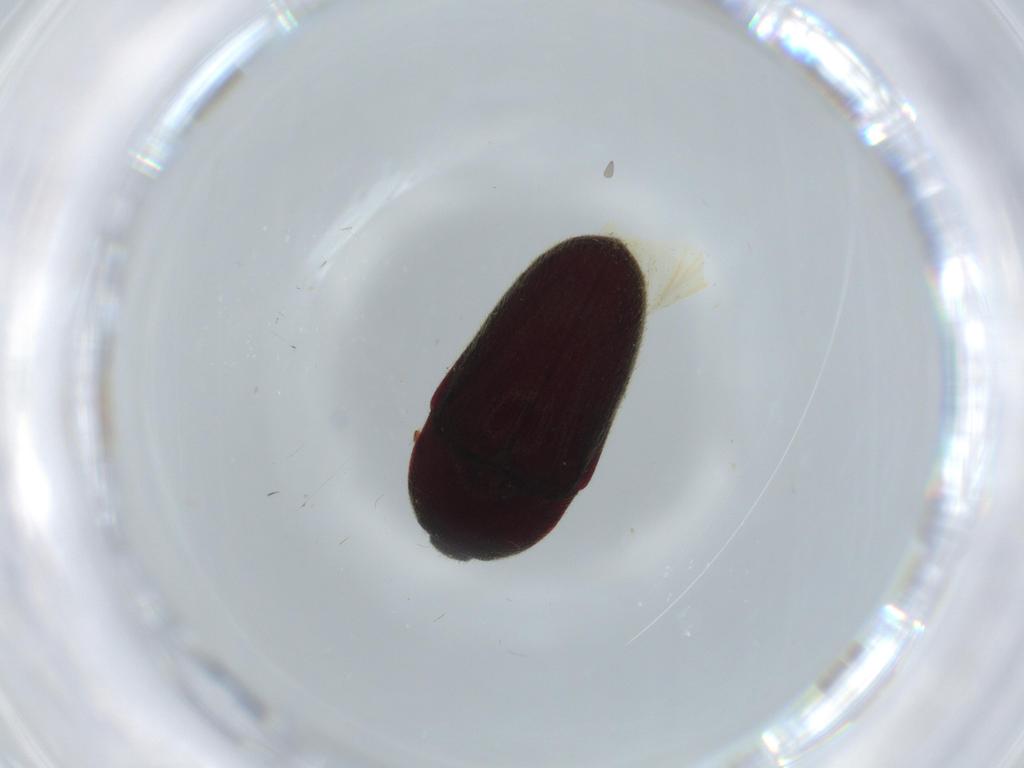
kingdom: Animalia
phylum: Arthropoda
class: Insecta
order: Coleoptera
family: Throscidae
